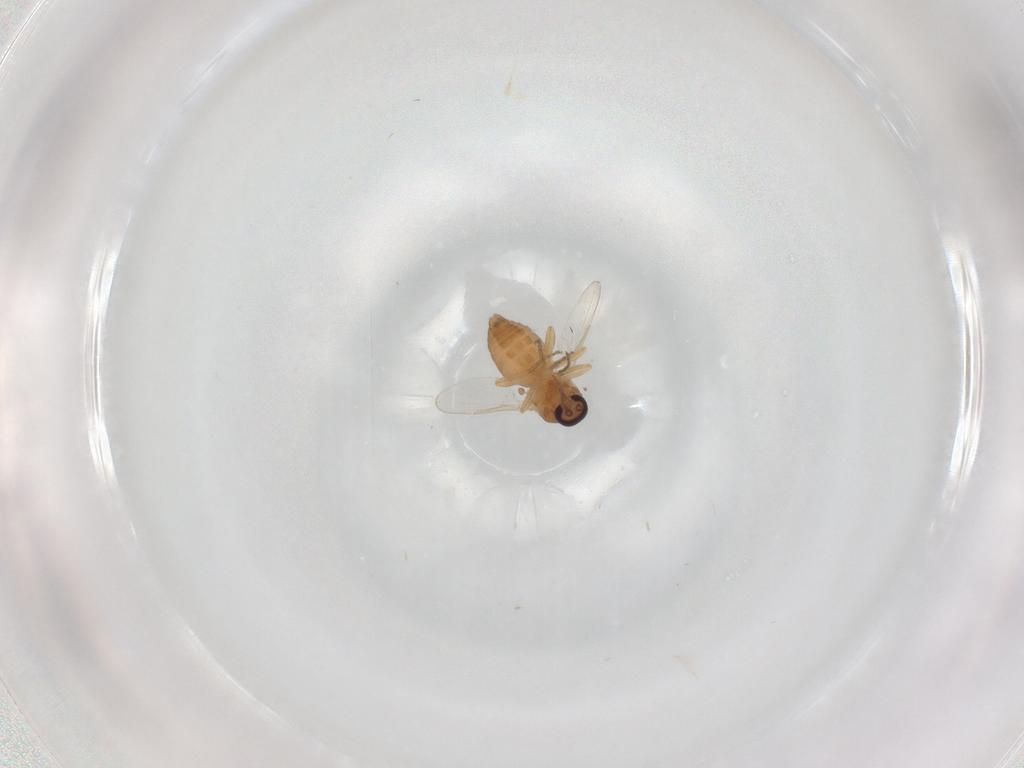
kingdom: Animalia
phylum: Arthropoda
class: Insecta
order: Diptera
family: Ceratopogonidae
